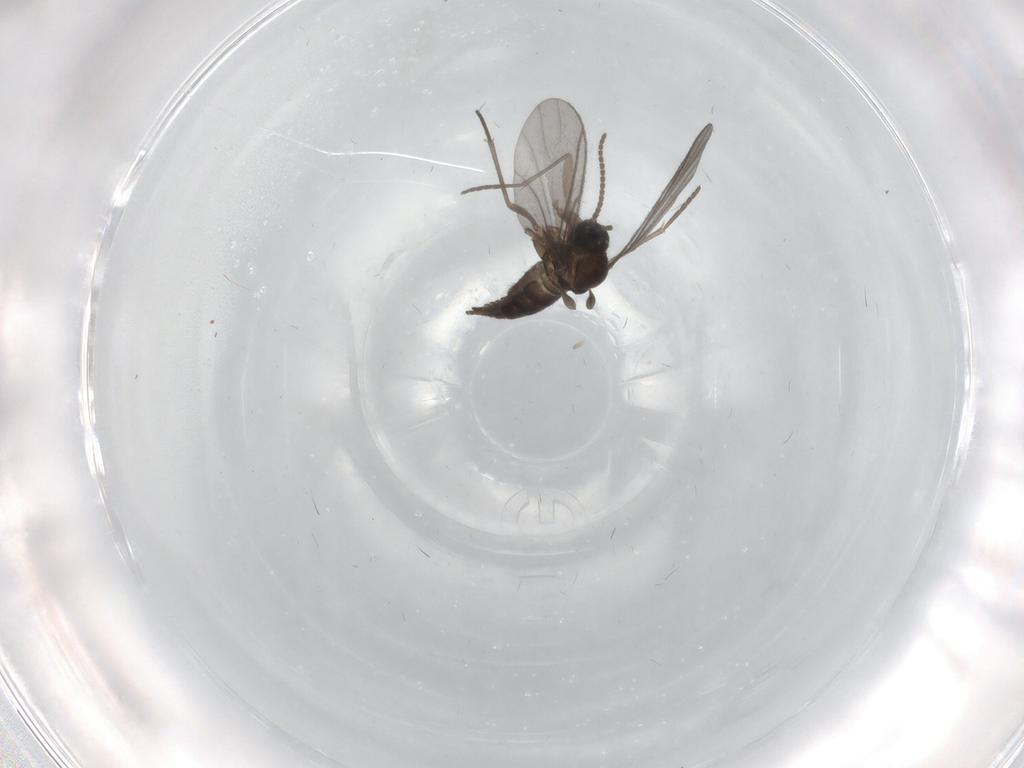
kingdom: Animalia
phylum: Arthropoda
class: Insecta
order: Diptera
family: Sciaridae
